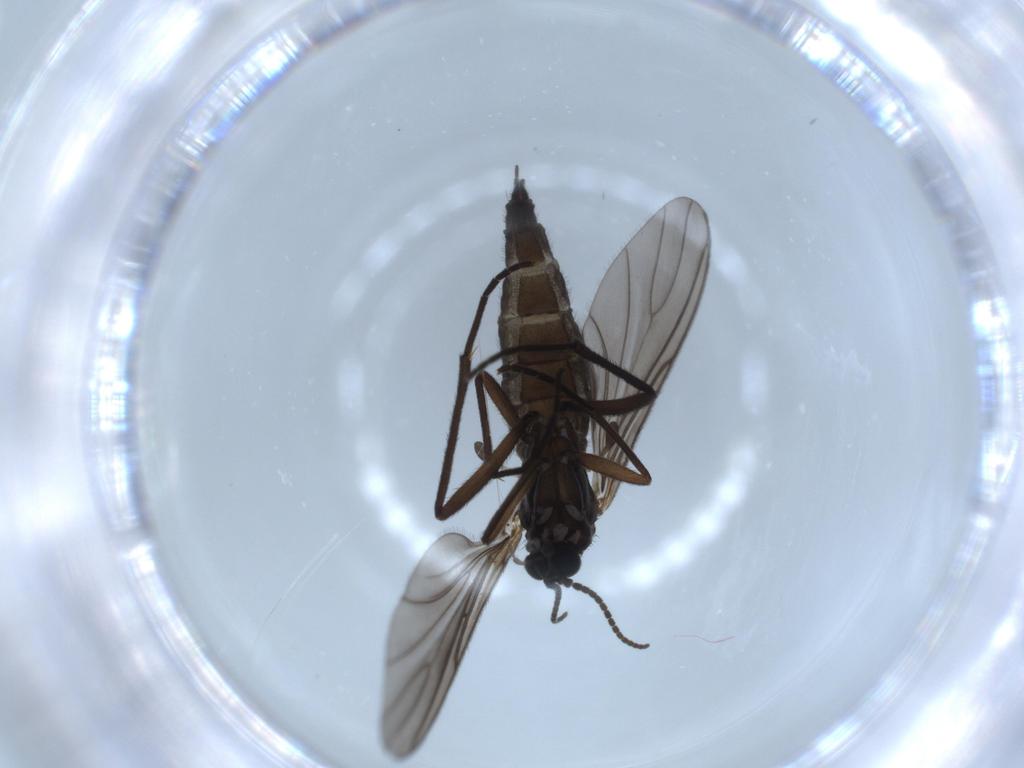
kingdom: Animalia
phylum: Arthropoda
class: Insecta
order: Diptera
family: Sciaridae
